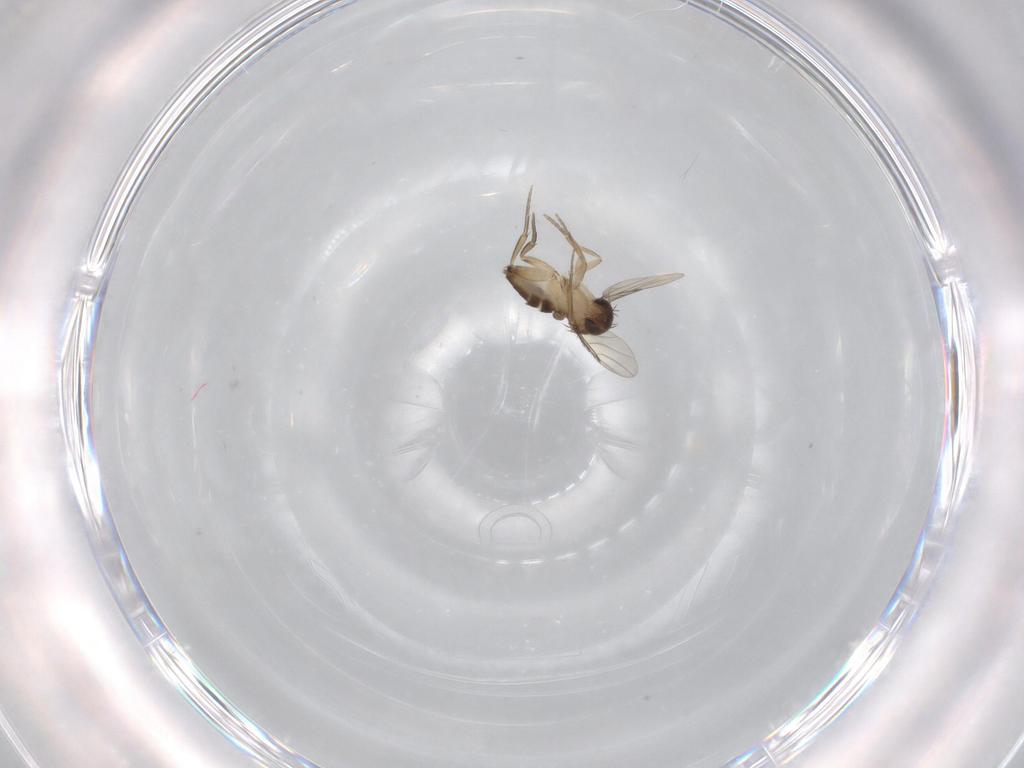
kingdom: Animalia
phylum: Arthropoda
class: Insecta
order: Diptera
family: Phoridae
